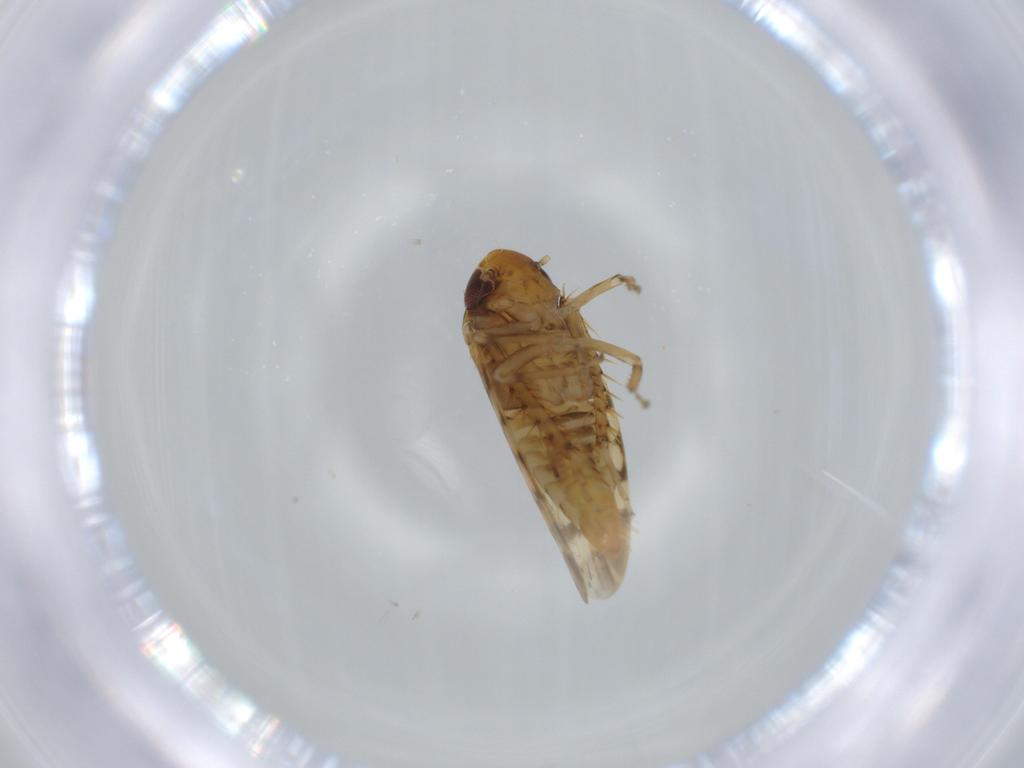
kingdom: Animalia
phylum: Arthropoda
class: Insecta
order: Hemiptera
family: Cicadellidae
